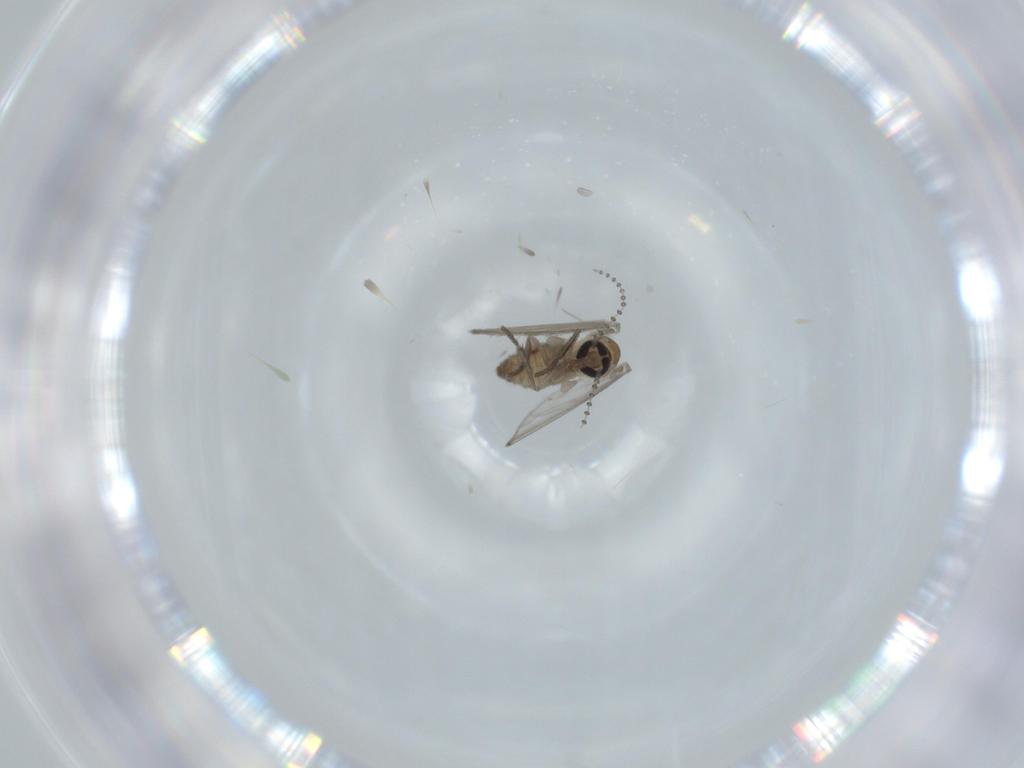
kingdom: Animalia
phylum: Arthropoda
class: Insecta
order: Diptera
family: Psychodidae
